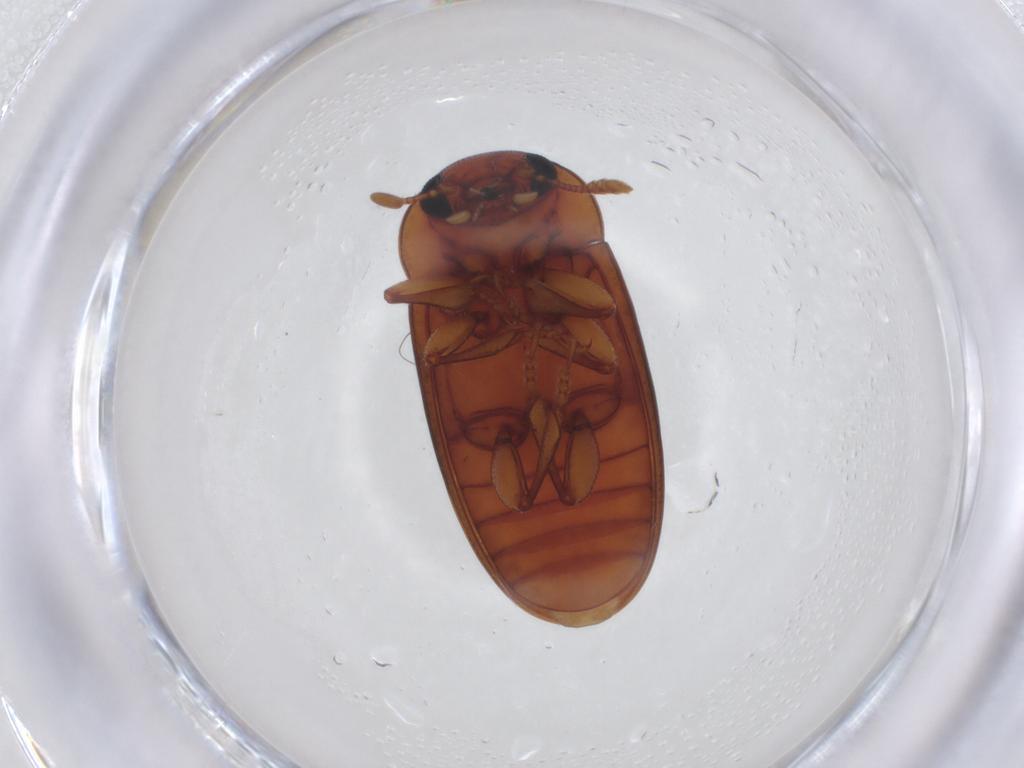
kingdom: Animalia
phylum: Arthropoda
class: Insecta
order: Coleoptera
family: Erotylidae
